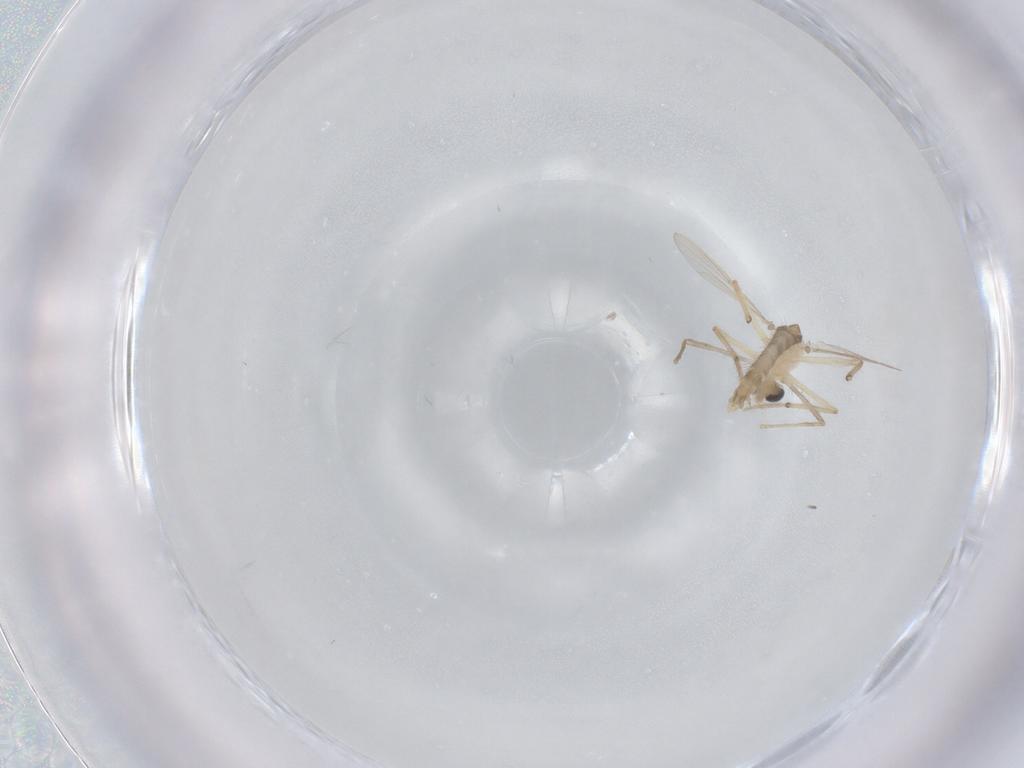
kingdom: Animalia
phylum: Arthropoda
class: Insecta
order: Diptera
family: Chironomidae
